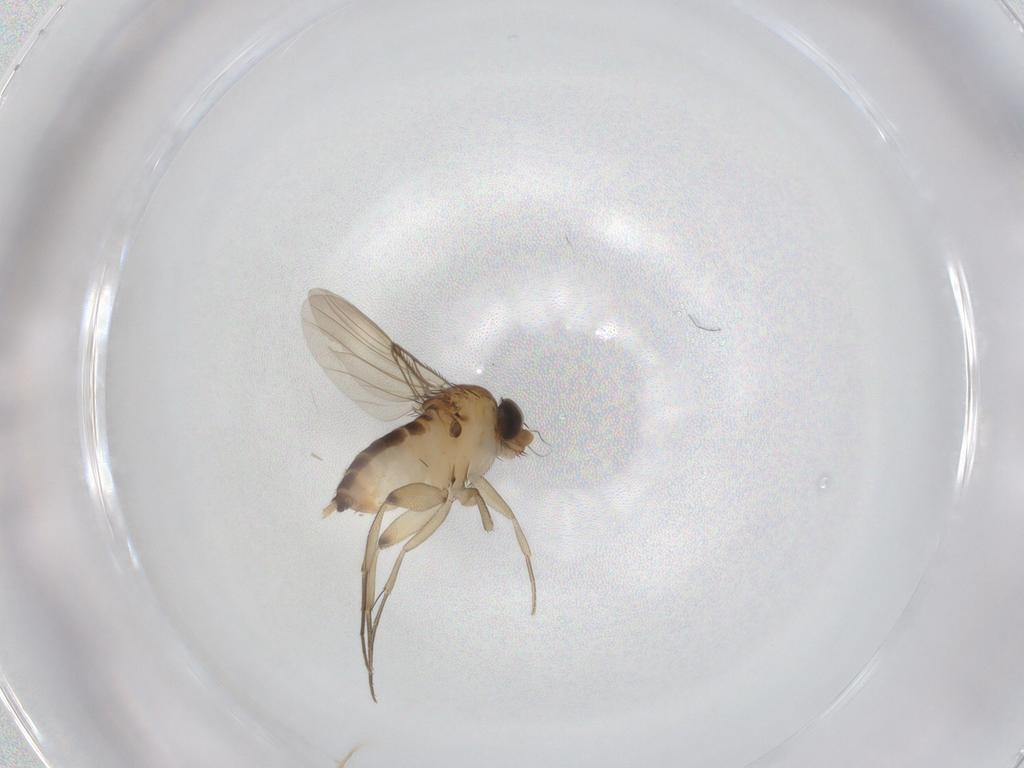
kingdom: Animalia
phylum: Arthropoda
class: Insecta
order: Diptera
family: Phoridae
